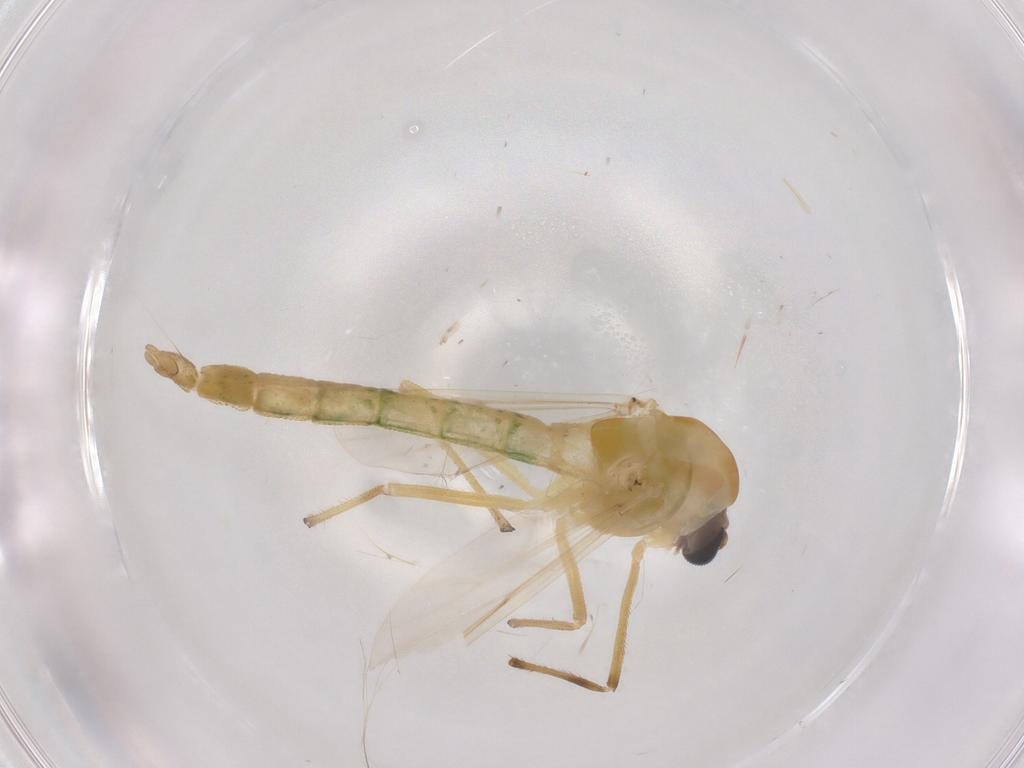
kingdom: Animalia
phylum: Arthropoda
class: Insecta
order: Diptera
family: Chironomidae
